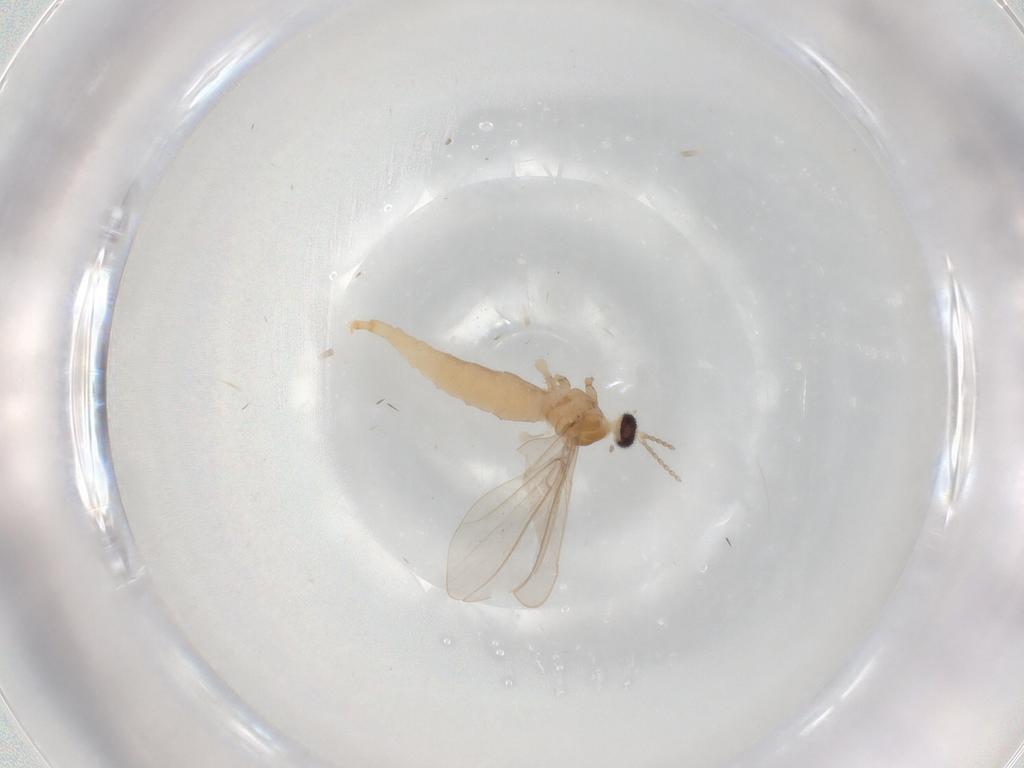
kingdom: Animalia
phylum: Arthropoda
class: Insecta
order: Diptera
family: Cecidomyiidae
